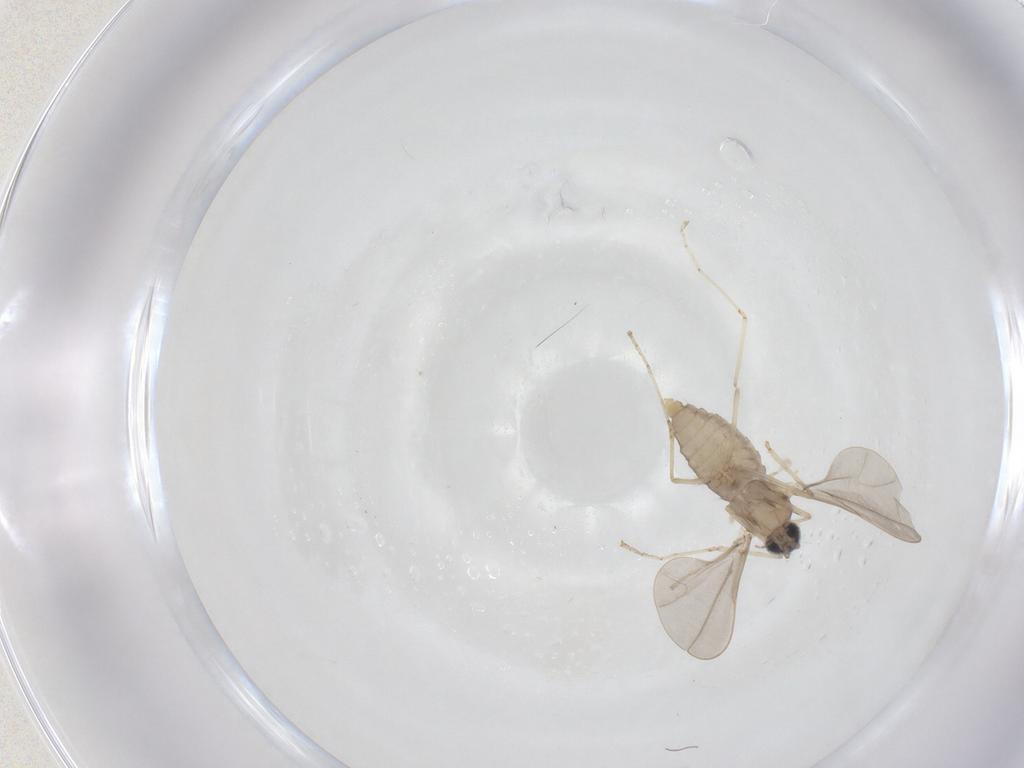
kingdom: Animalia
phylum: Arthropoda
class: Insecta
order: Diptera
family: Cecidomyiidae
